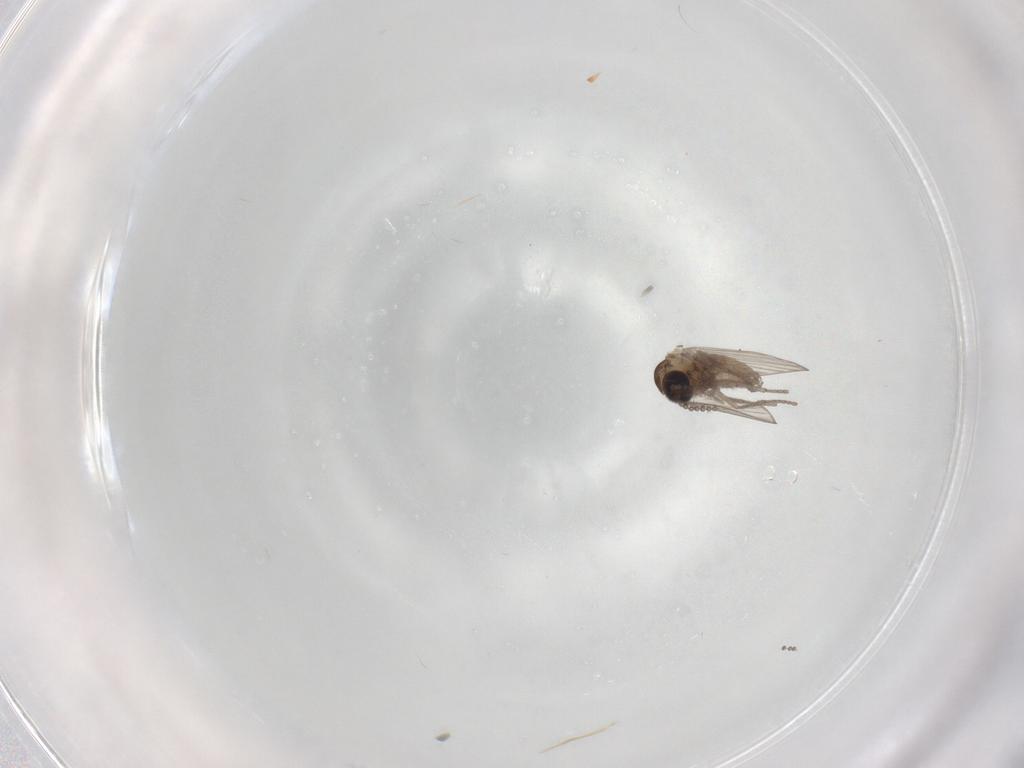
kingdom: Animalia
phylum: Arthropoda
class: Insecta
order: Diptera
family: Psychodidae
